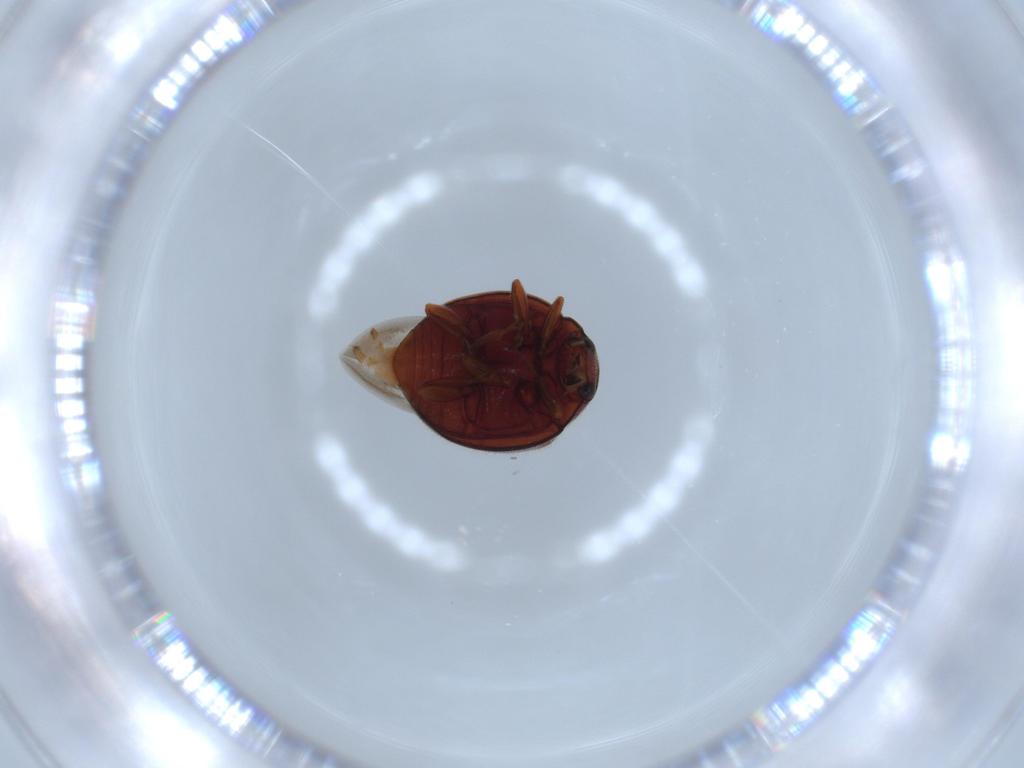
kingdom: Animalia
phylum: Arthropoda
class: Insecta
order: Coleoptera
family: Coccinellidae
